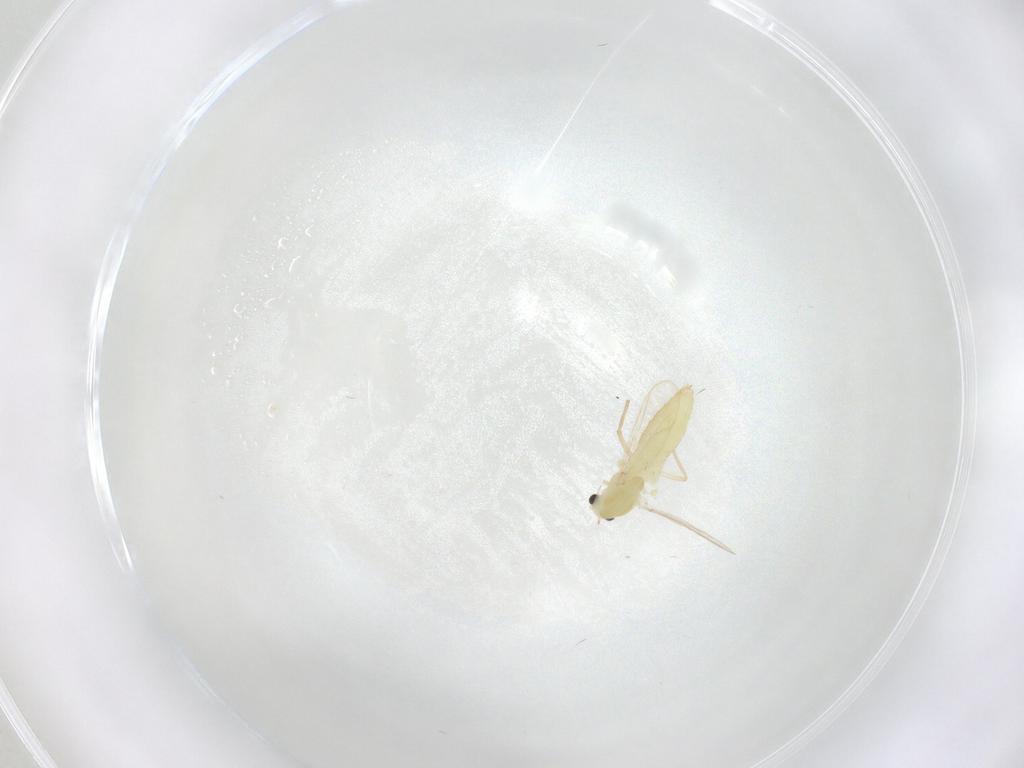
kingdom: Animalia
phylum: Arthropoda
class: Insecta
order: Diptera
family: Chironomidae
